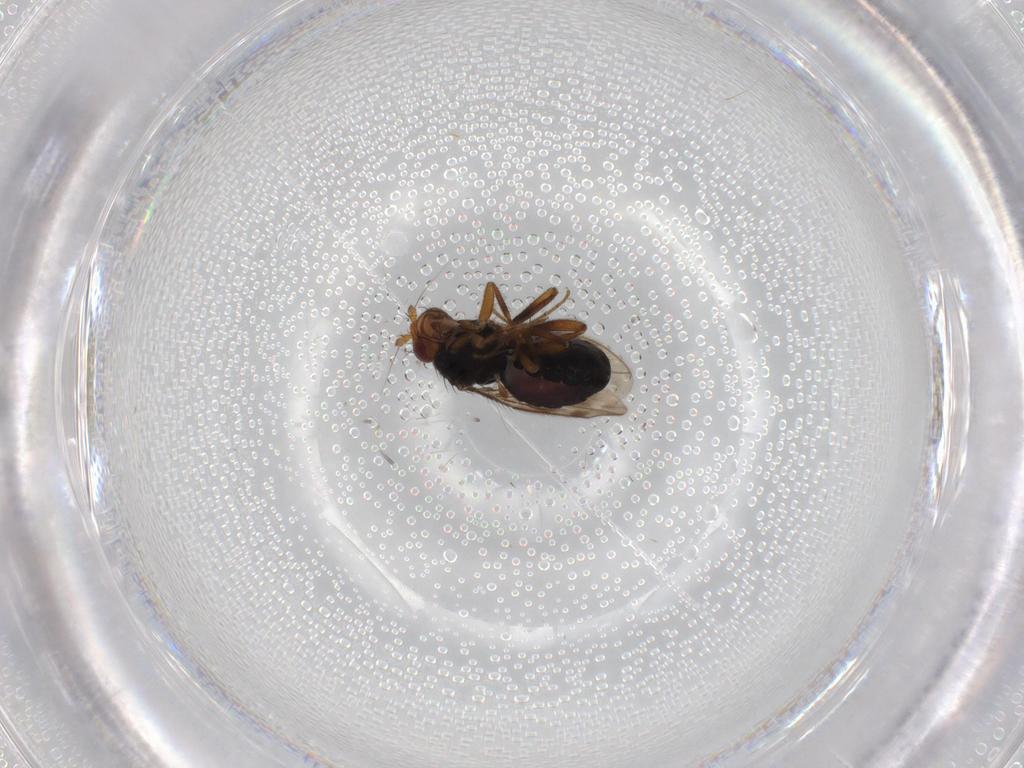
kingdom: Animalia
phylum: Arthropoda
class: Insecta
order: Diptera
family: Sphaeroceridae
